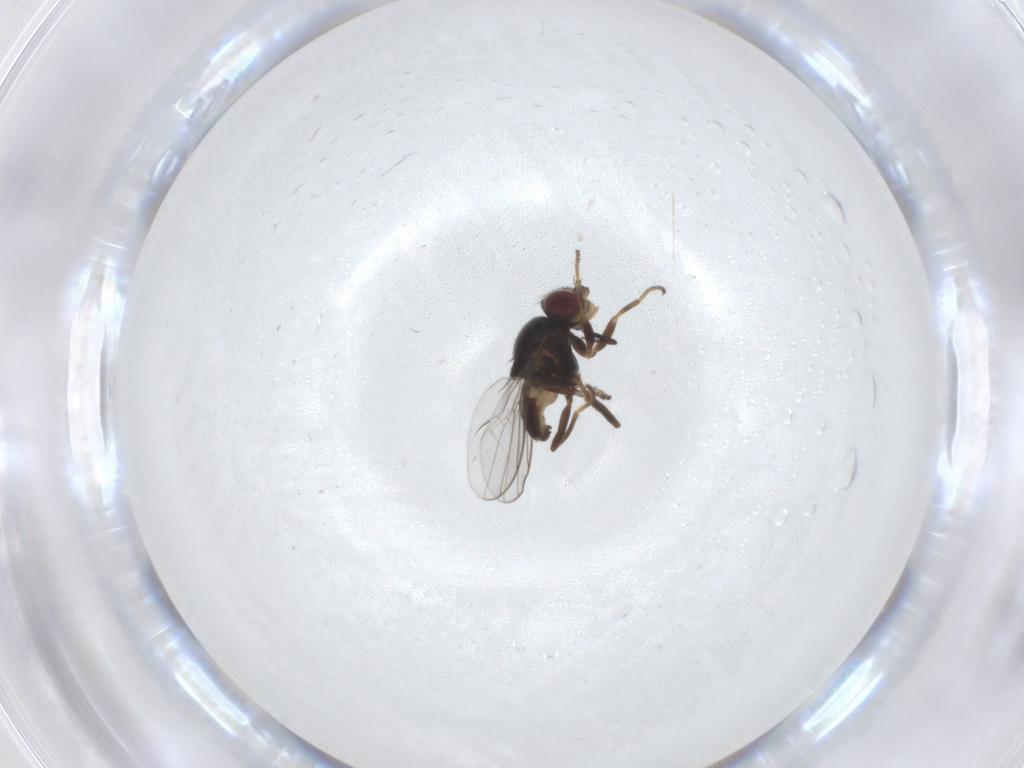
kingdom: Animalia
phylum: Arthropoda
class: Insecta
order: Diptera
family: Chloropidae
